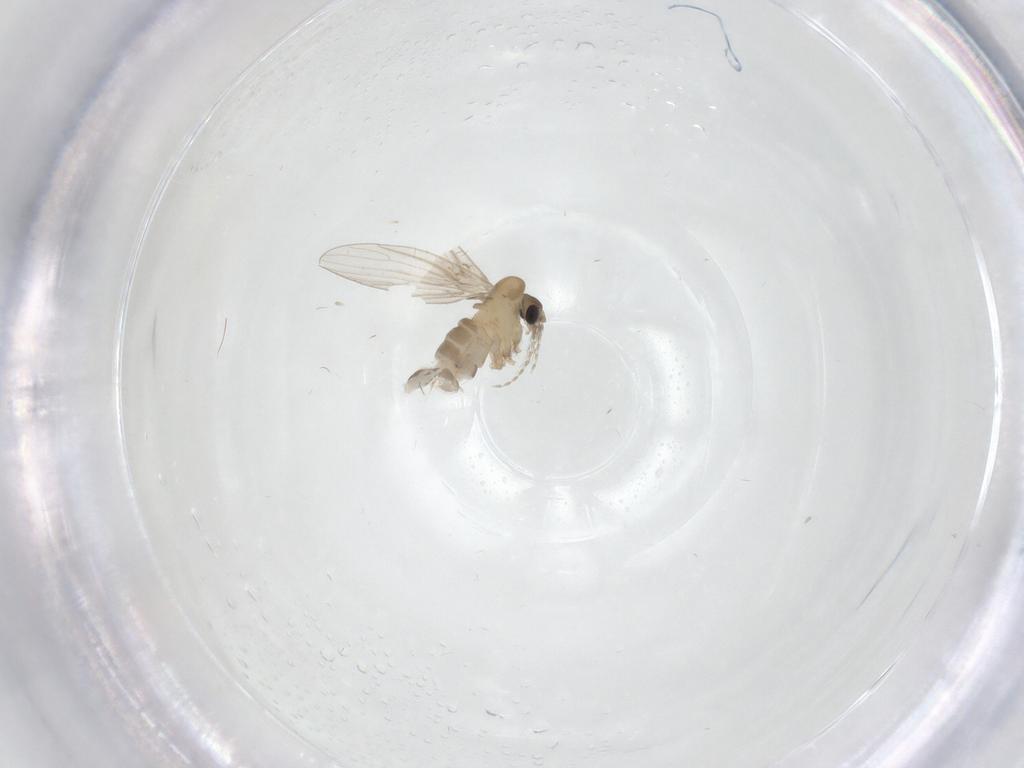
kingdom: Animalia
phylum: Arthropoda
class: Insecta
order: Diptera
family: Psychodidae
